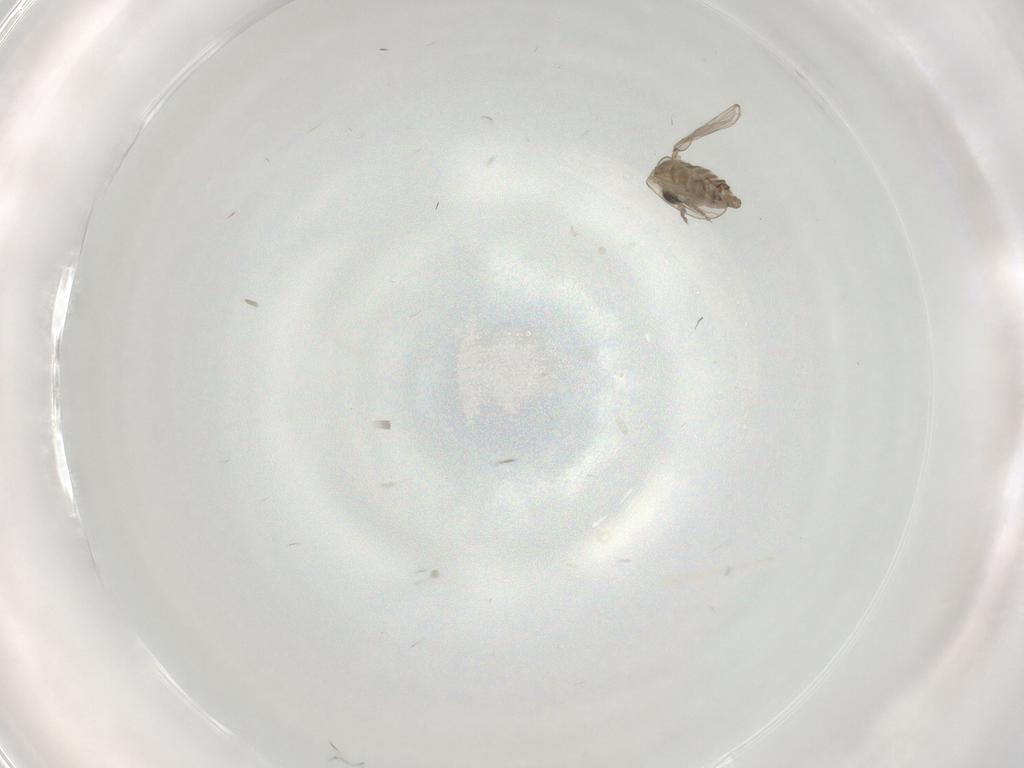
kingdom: Animalia
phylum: Arthropoda
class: Insecta
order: Diptera
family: Mycetophilidae
